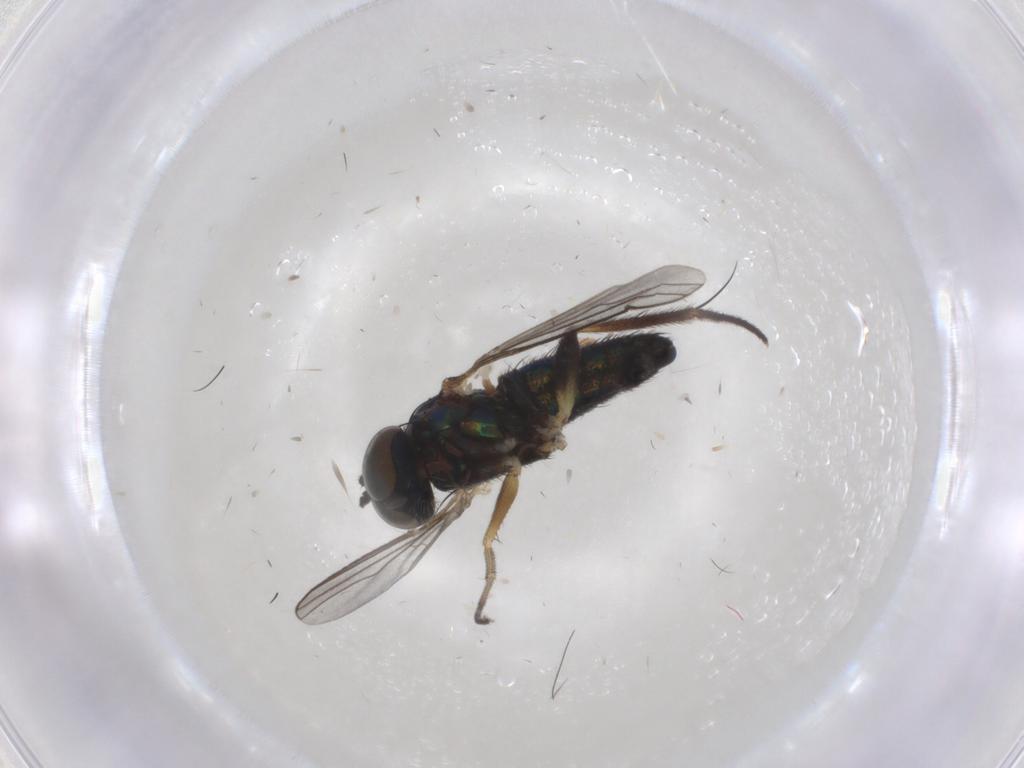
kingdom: Animalia
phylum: Arthropoda
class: Insecta
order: Diptera
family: Dolichopodidae
